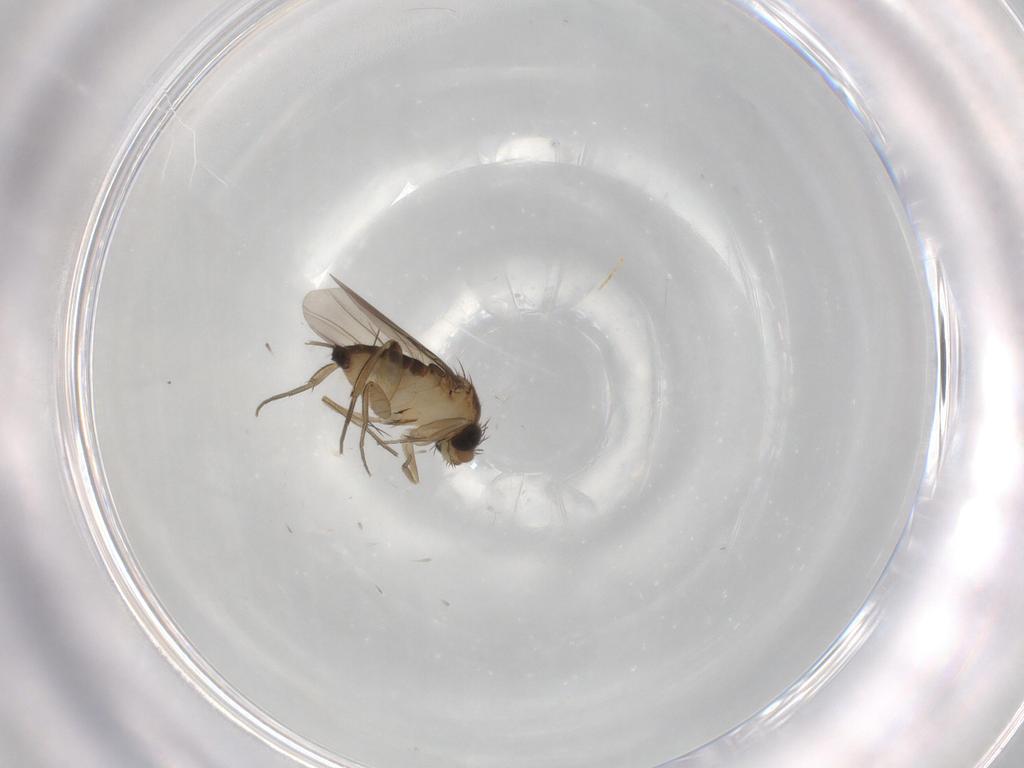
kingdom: Animalia
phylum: Arthropoda
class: Insecta
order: Diptera
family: Phoridae
